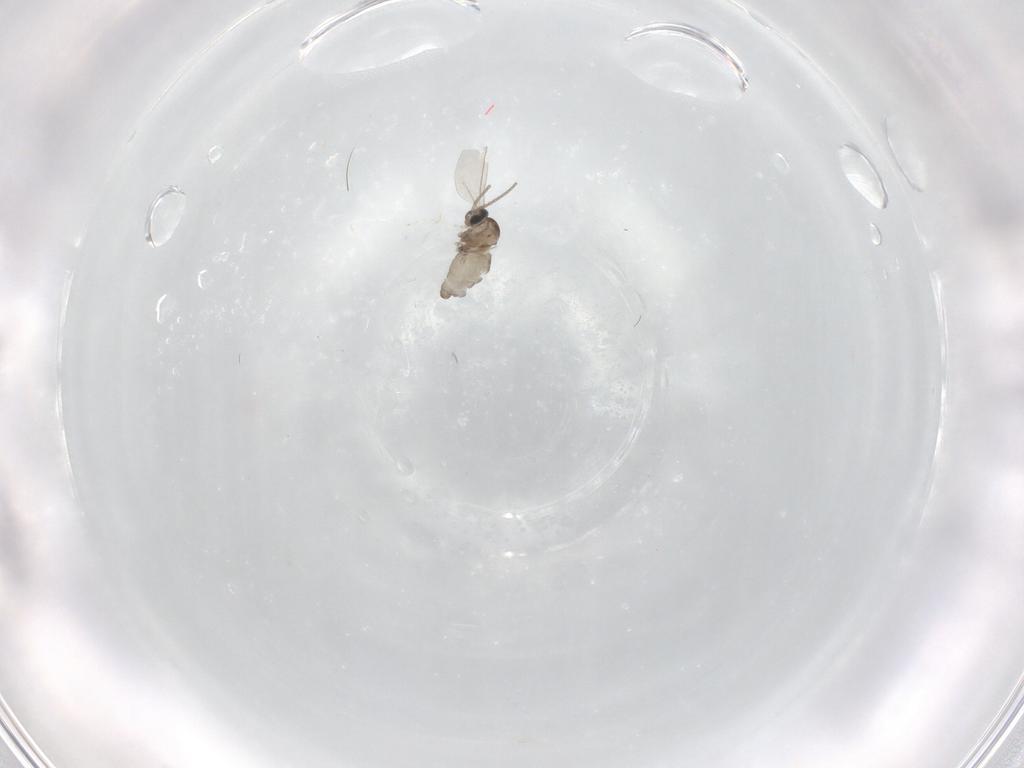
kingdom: Animalia
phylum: Arthropoda
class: Insecta
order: Diptera
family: Cecidomyiidae
